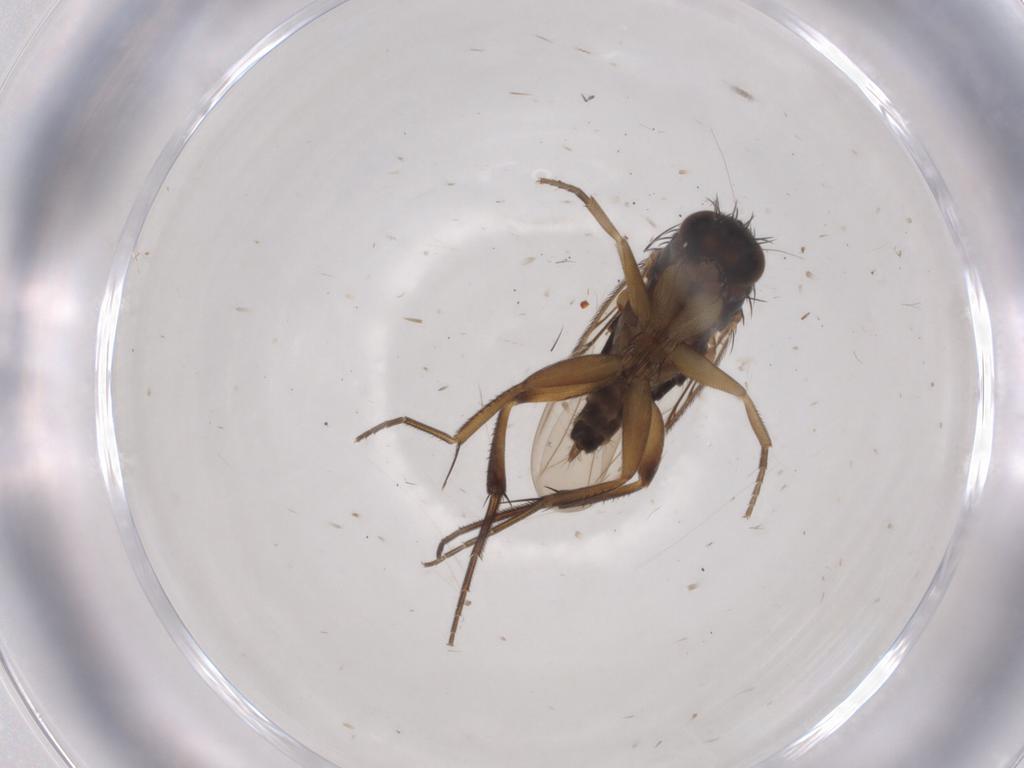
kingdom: Animalia
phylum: Arthropoda
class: Insecta
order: Diptera
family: Phoridae
